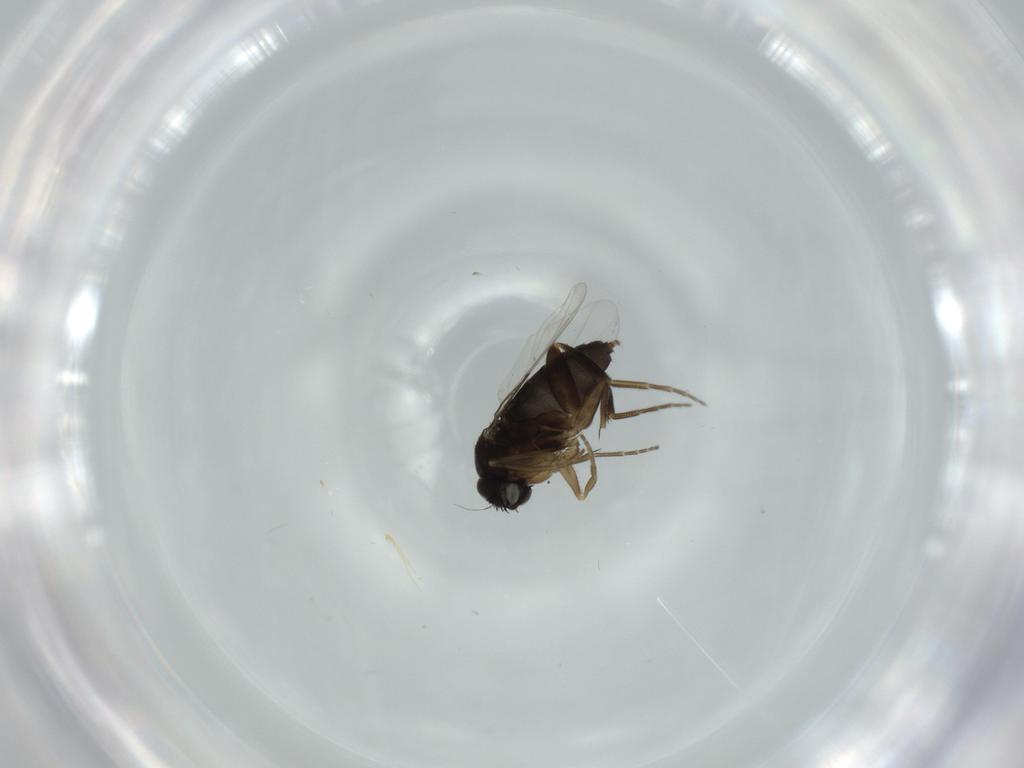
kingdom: Animalia
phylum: Arthropoda
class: Insecta
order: Diptera
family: Phoridae
